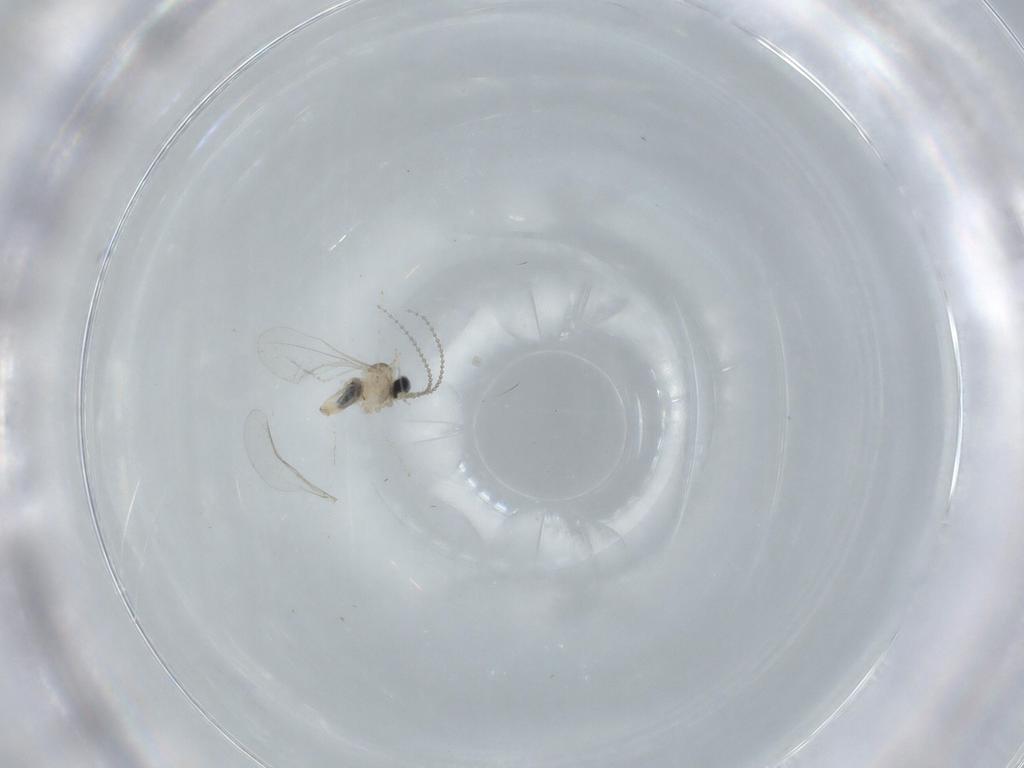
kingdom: Animalia
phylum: Arthropoda
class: Insecta
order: Diptera
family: Cecidomyiidae
